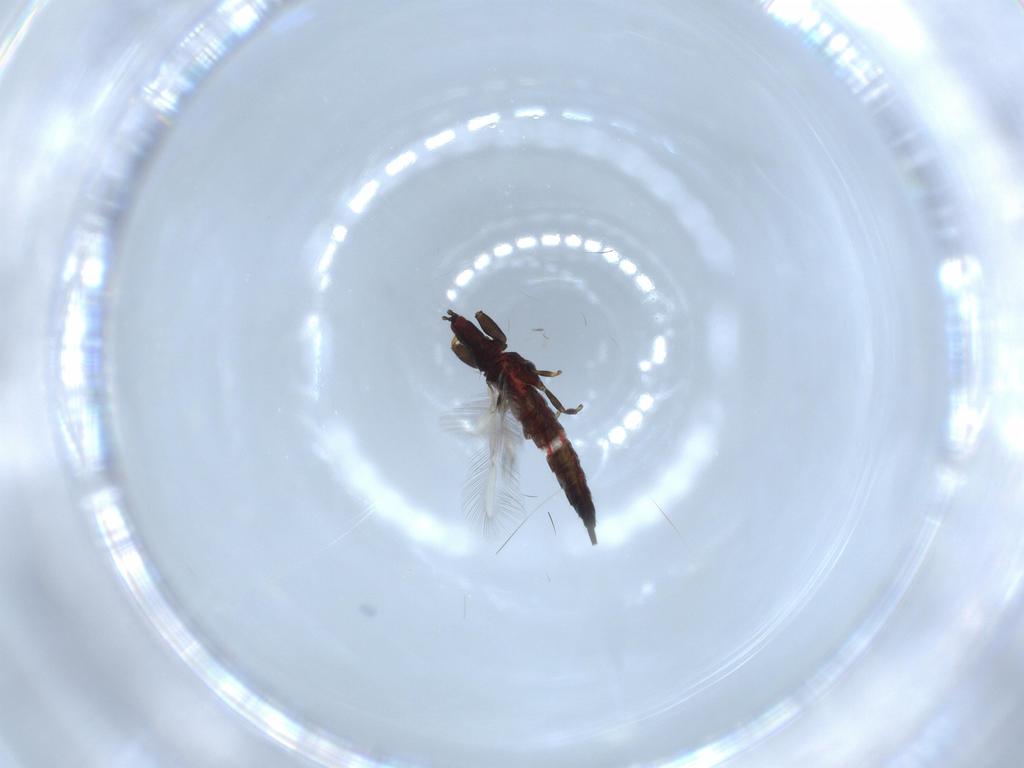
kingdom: Animalia
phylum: Arthropoda
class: Insecta
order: Thysanoptera
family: Phlaeothripidae
